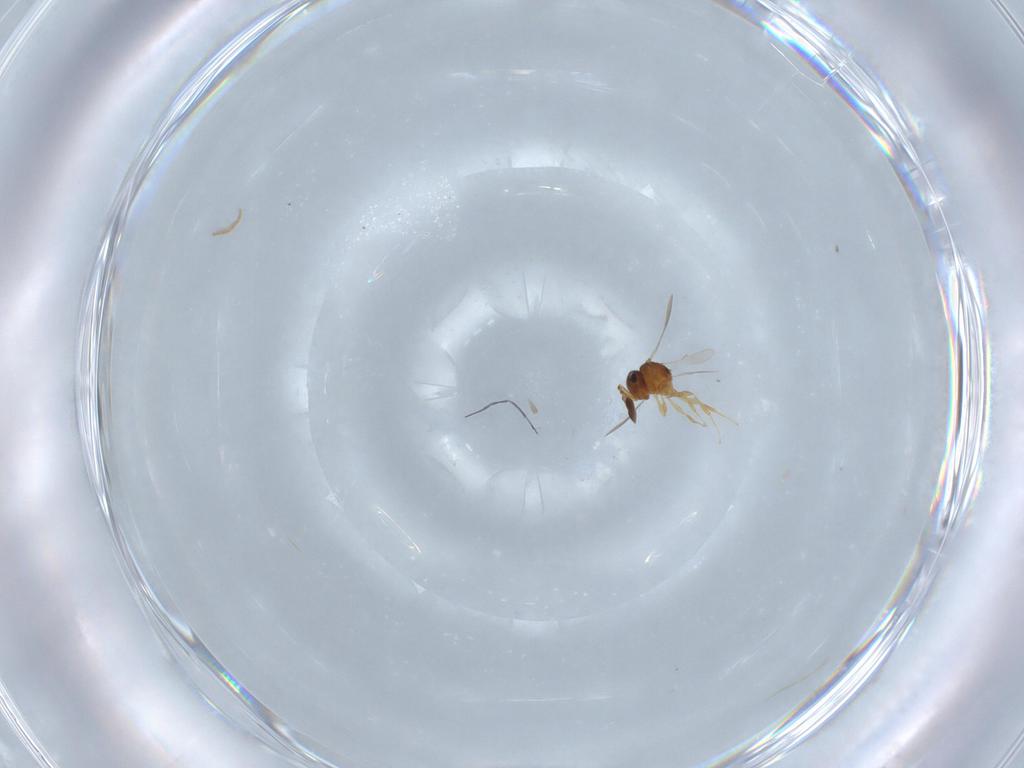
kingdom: Animalia
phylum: Arthropoda
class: Insecta
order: Hymenoptera
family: Scelionidae
